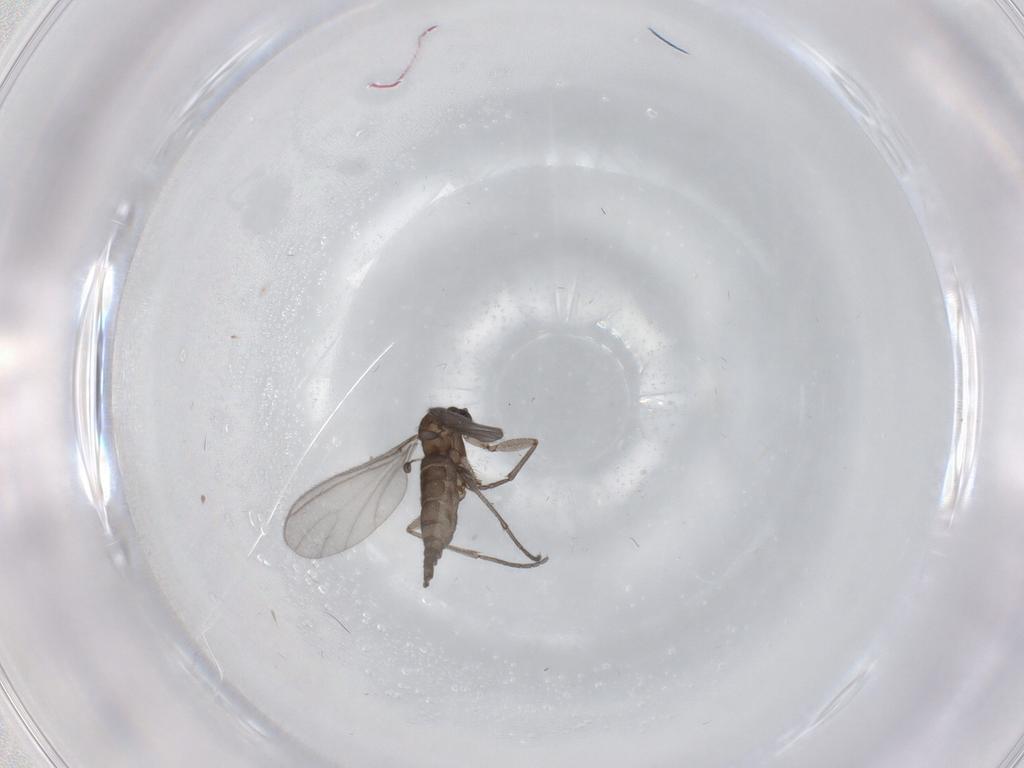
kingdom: Animalia
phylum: Arthropoda
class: Insecta
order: Diptera
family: Sciaridae
